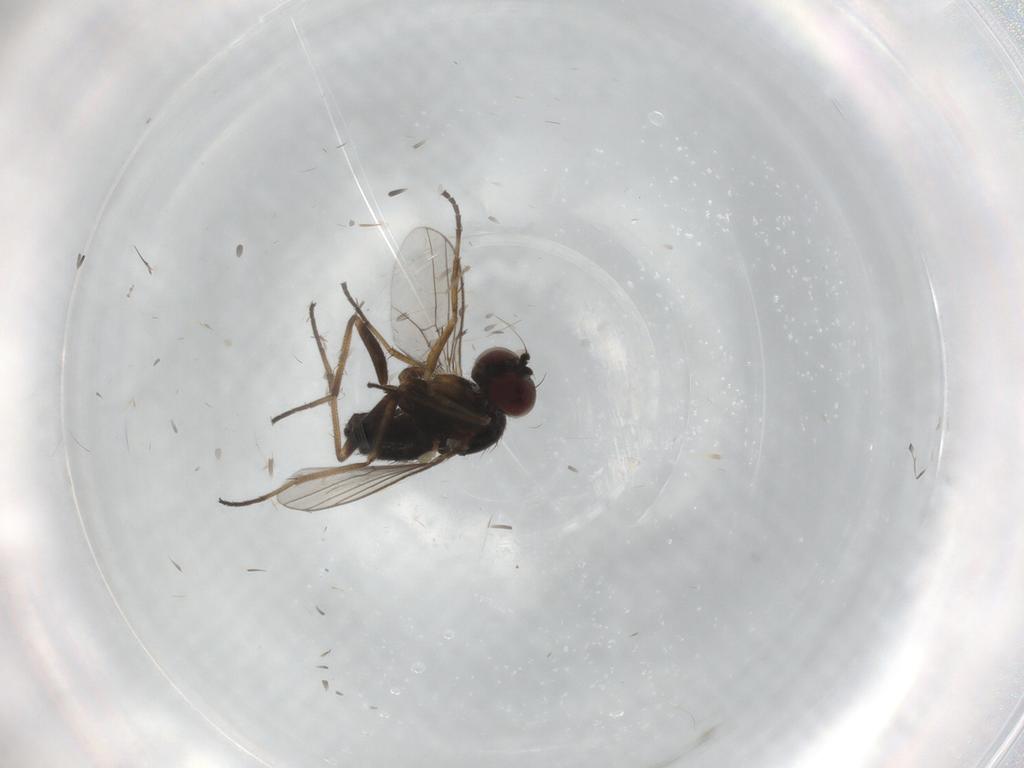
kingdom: Animalia
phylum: Arthropoda
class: Insecta
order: Diptera
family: Dolichopodidae
